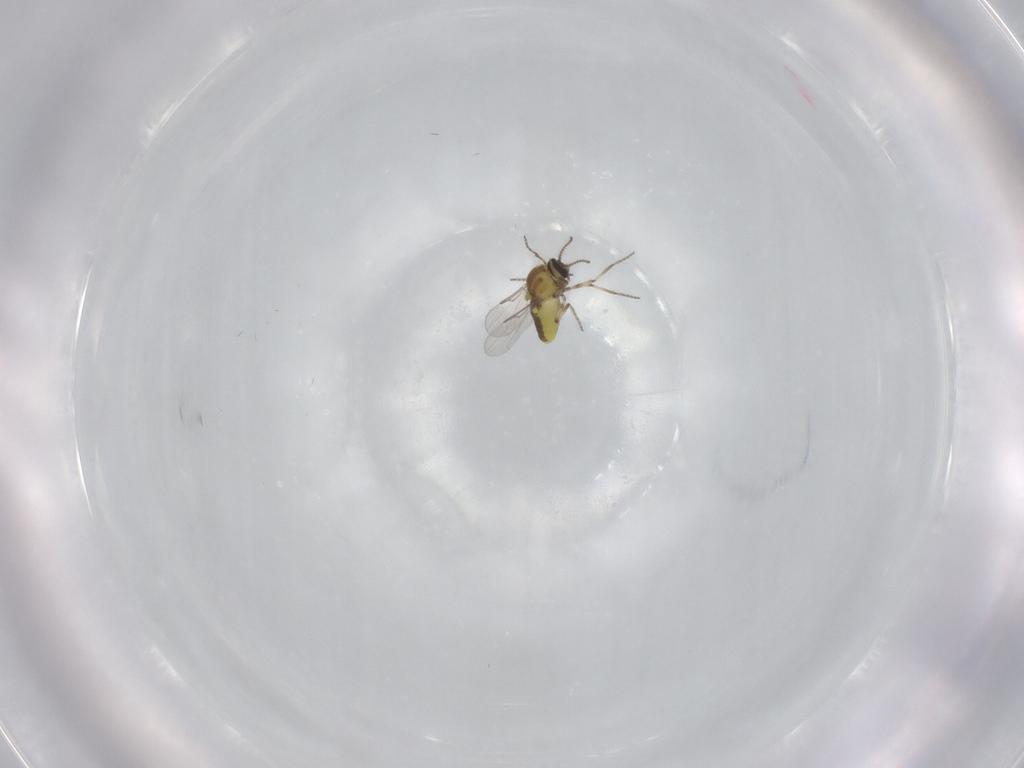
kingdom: Animalia
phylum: Arthropoda
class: Insecta
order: Diptera
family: Dolichopodidae
